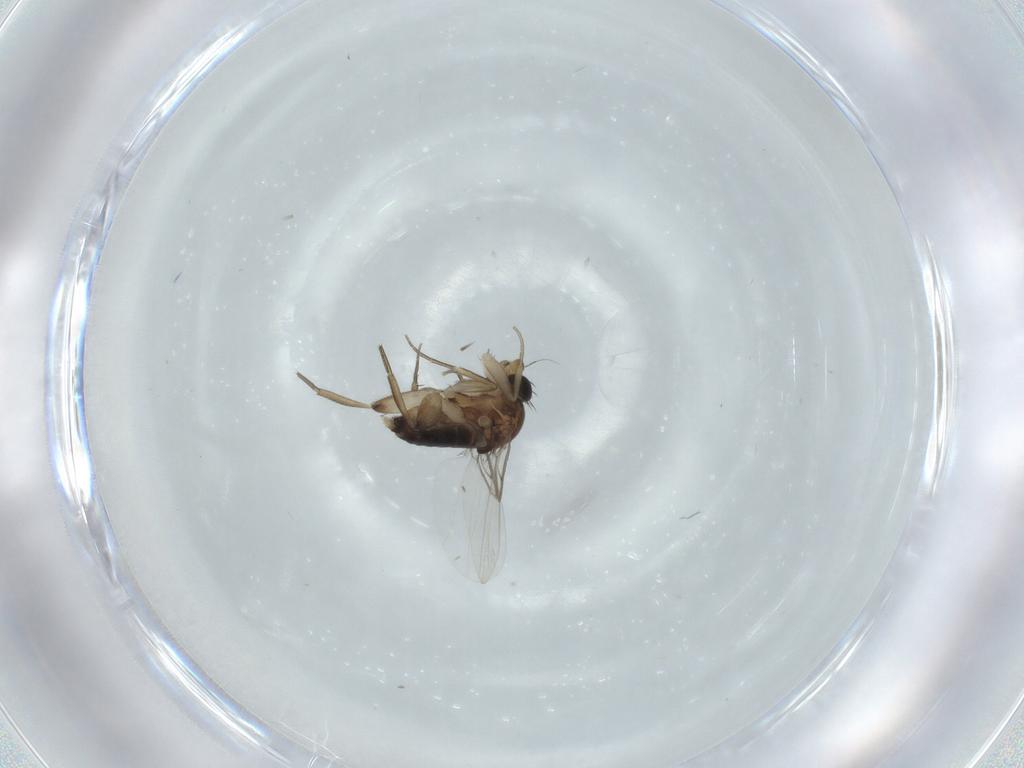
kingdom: Animalia
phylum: Arthropoda
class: Insecta
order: Diptera
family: Phoridae
